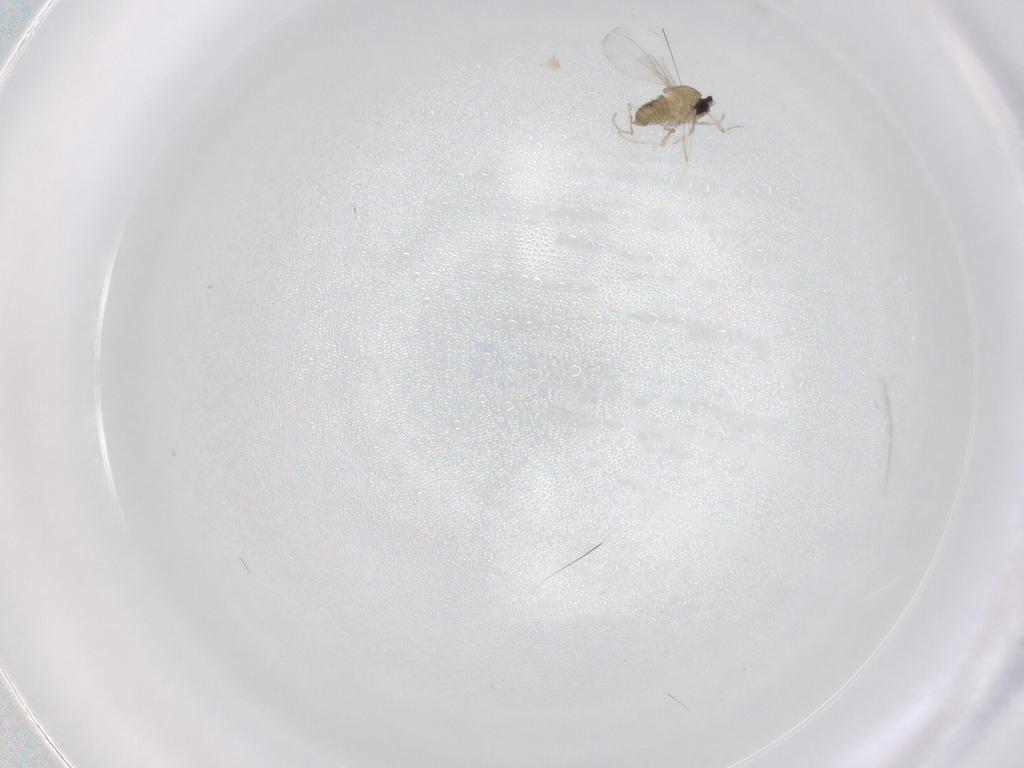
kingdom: Animalia
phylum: Arthropoda
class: Insecta
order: Diptera
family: Cecidomyiidae
